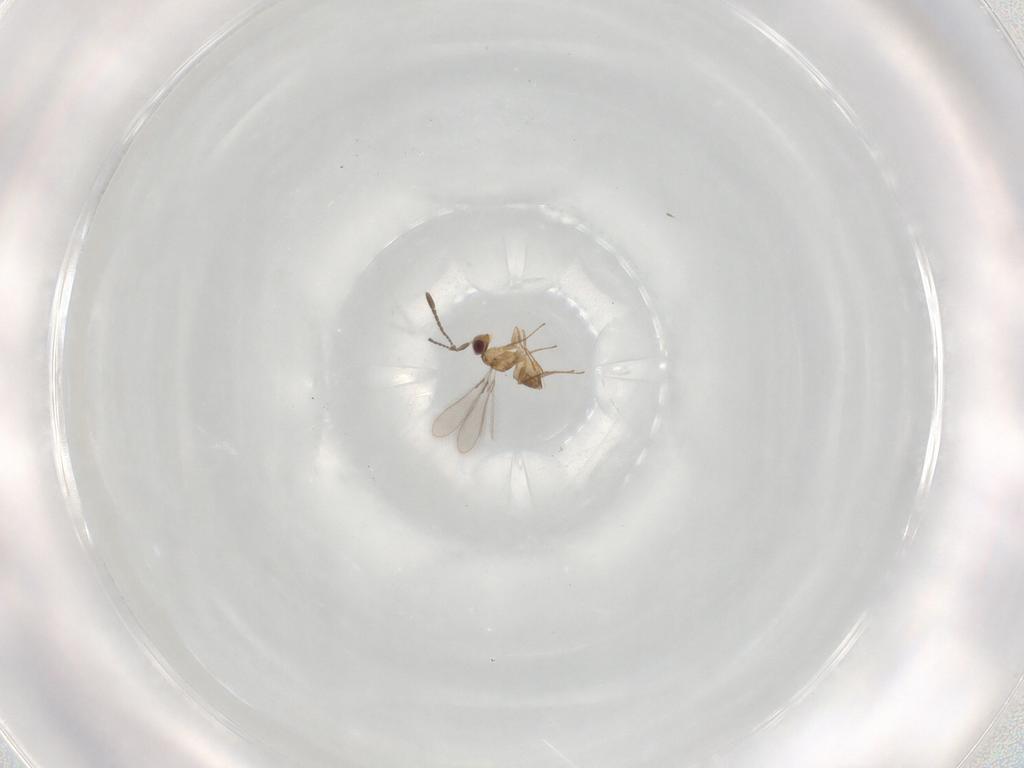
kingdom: Animalia
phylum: Arthropoda
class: Insecta
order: Hymenoptera
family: Mymaridae
